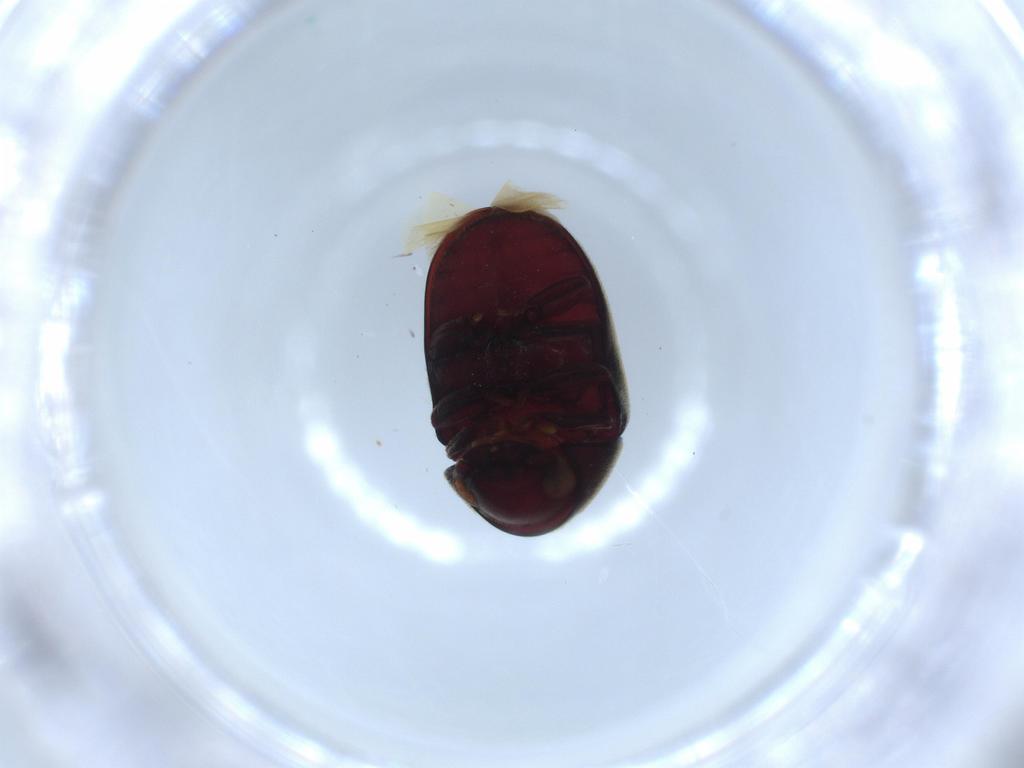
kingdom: Animalia
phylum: Arthropoda
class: Insecta
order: Coleoptera
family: Ptinidae
